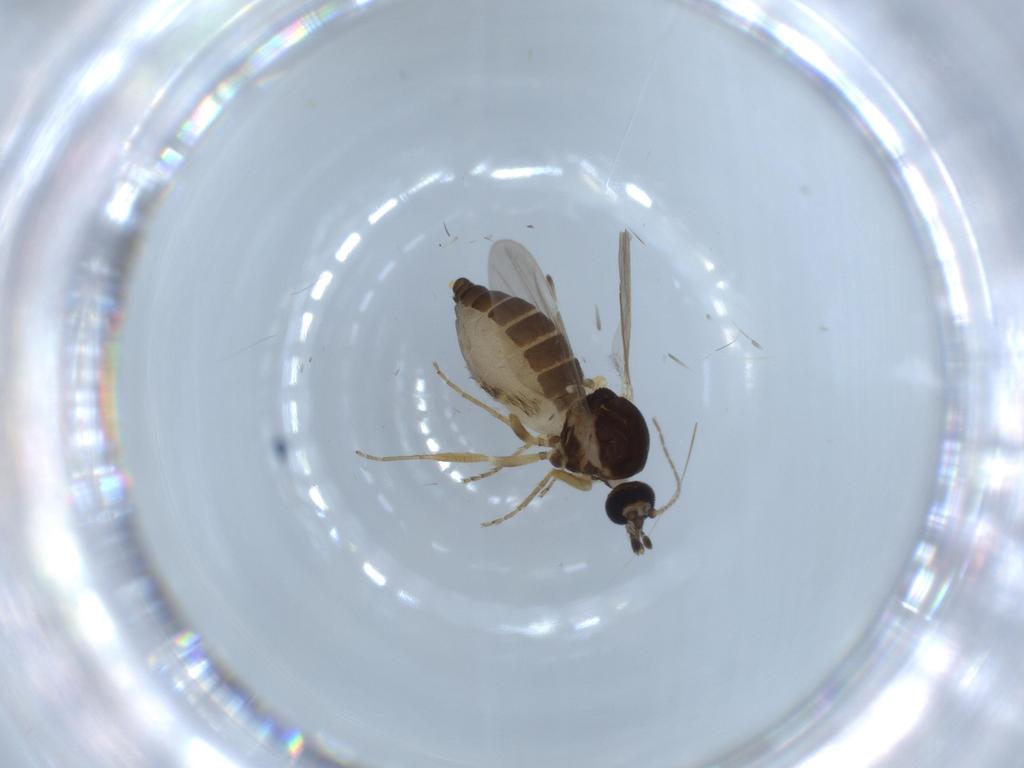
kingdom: Animalia
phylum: Arthropoda
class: Insecta
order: Diptera
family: Ceratopogonidae
